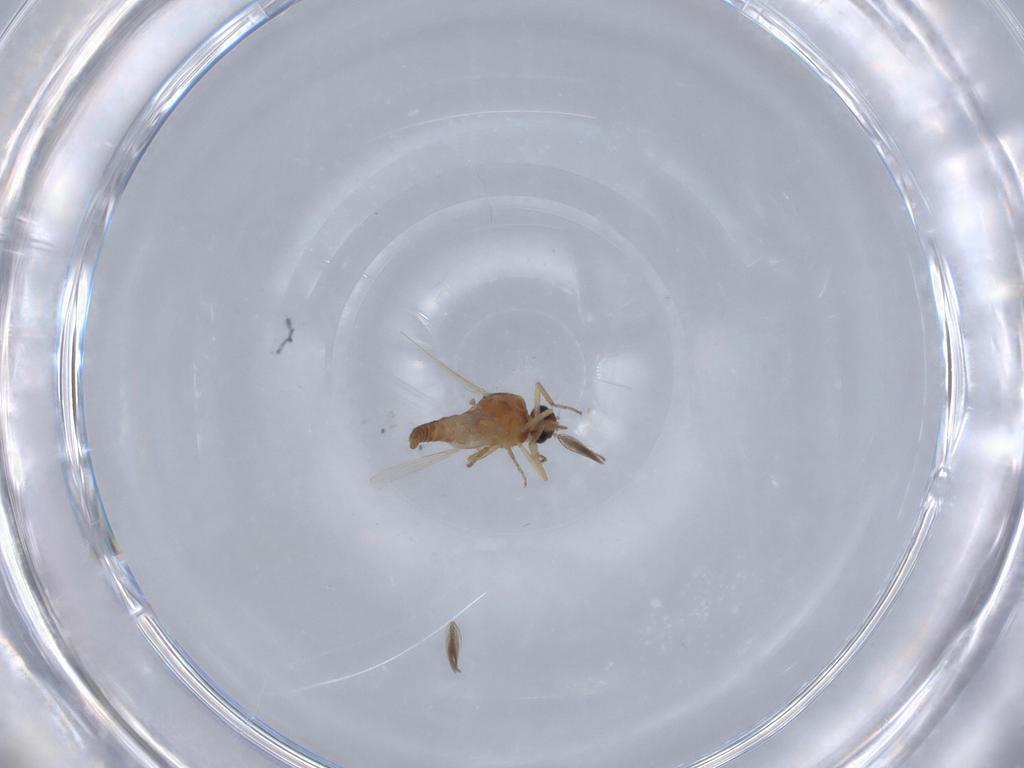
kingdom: Animalia
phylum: Arthropoda
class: Insecta
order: Diptera
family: Ceratopogonidae
